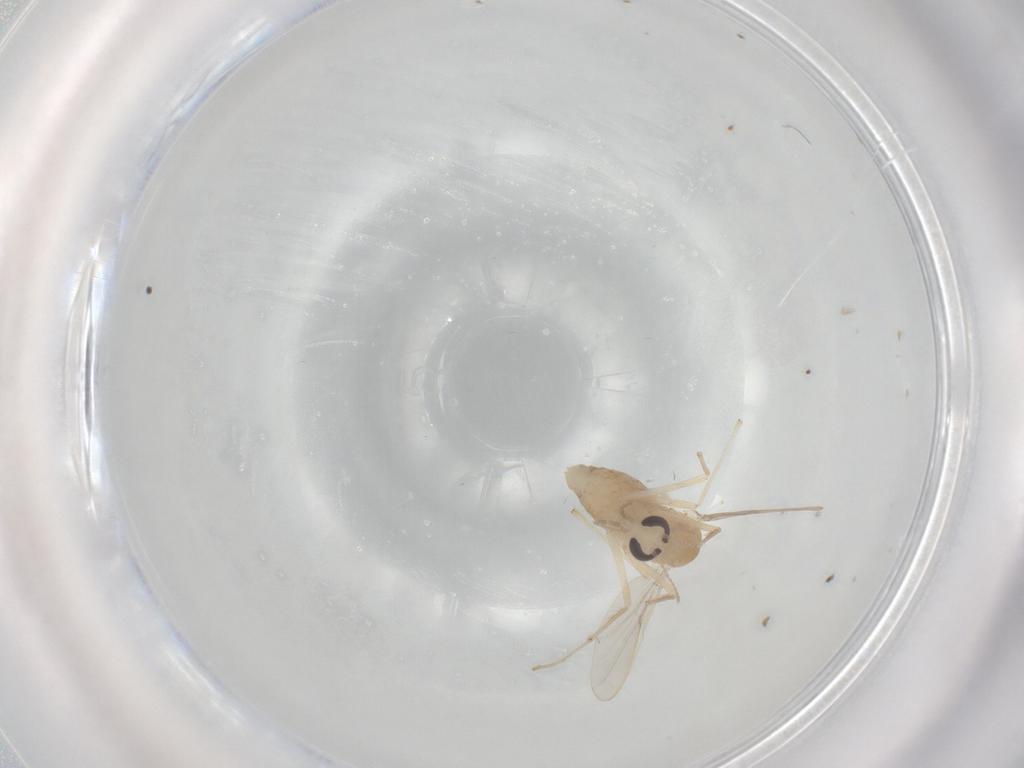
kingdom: Animalia
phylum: Arthropoda
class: Insecta
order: Diptera
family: Chironomidae
